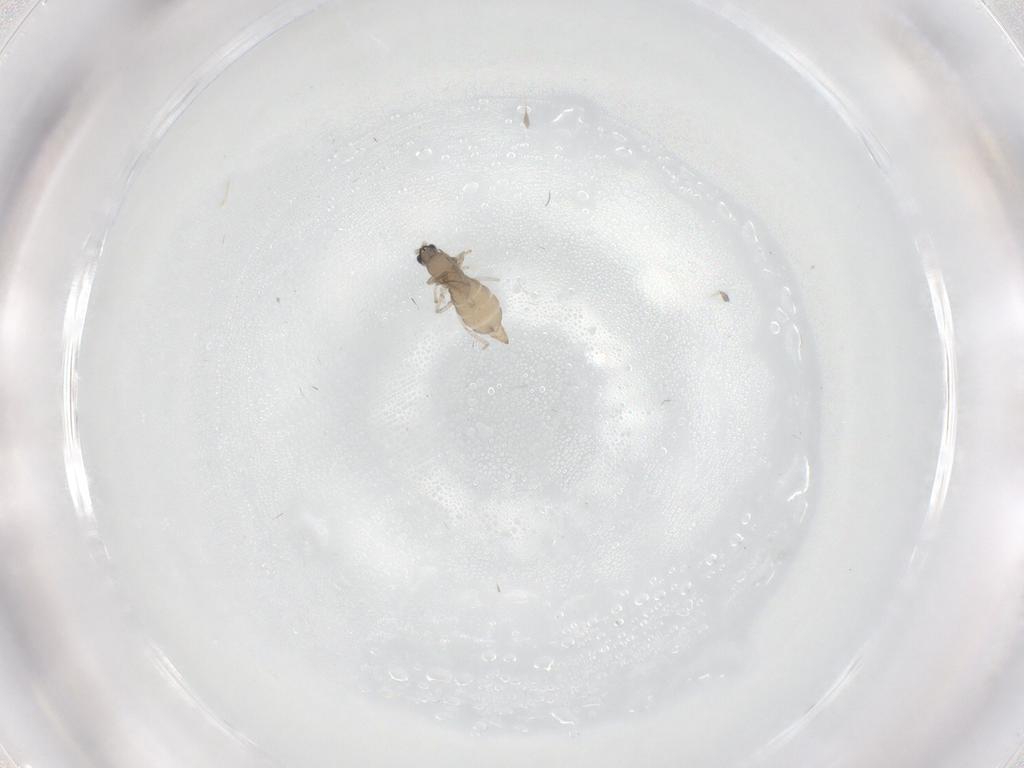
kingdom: Animalia
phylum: Arthropoda
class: Insecta
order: Diptera
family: Cecidomyiidae
